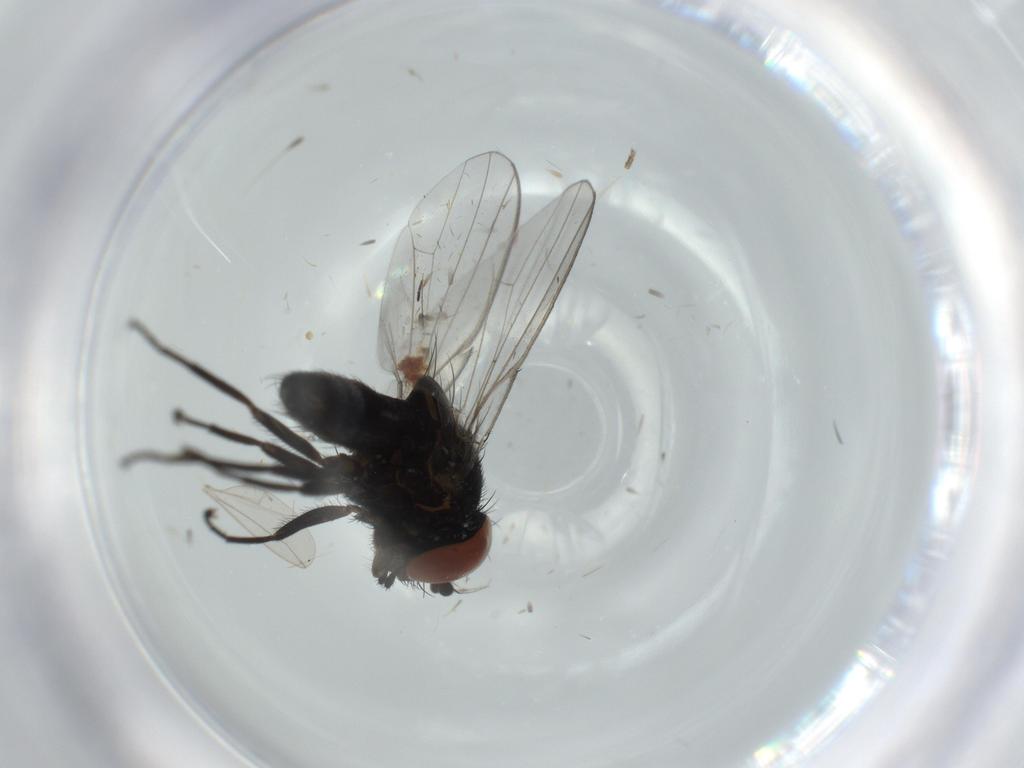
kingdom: Animalia
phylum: Arthropoda
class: Insecta
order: Diptera
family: Milichiidae
